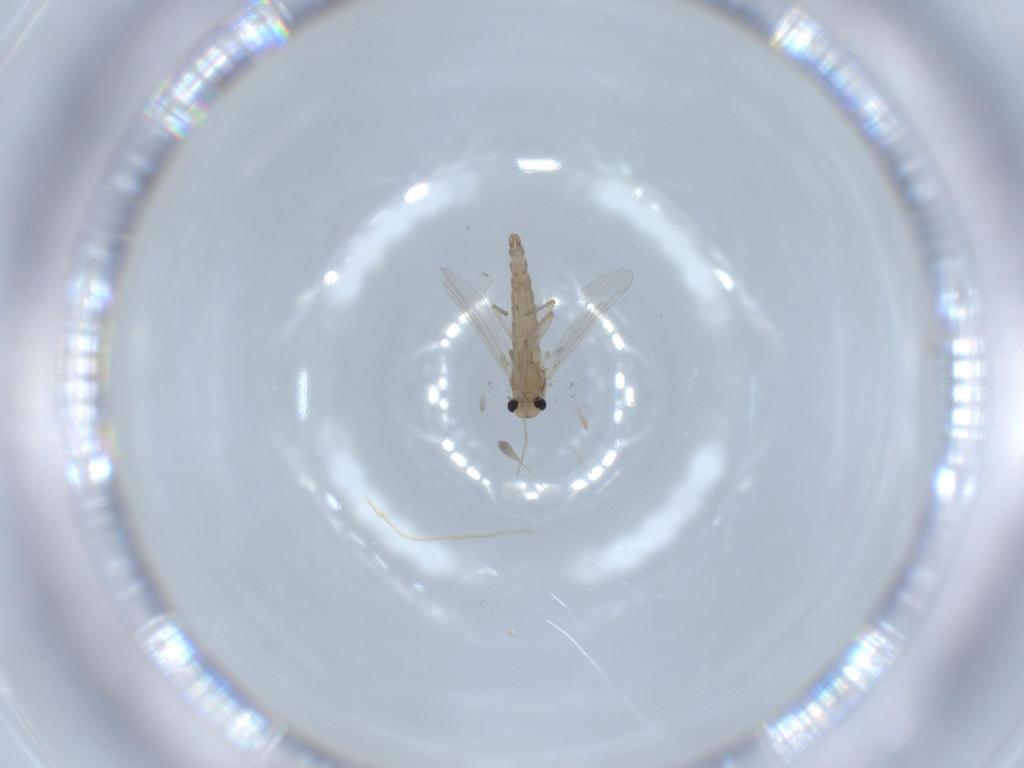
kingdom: Animalia
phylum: Arthropoda
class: Insecta
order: Diptera
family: Chironomidae
